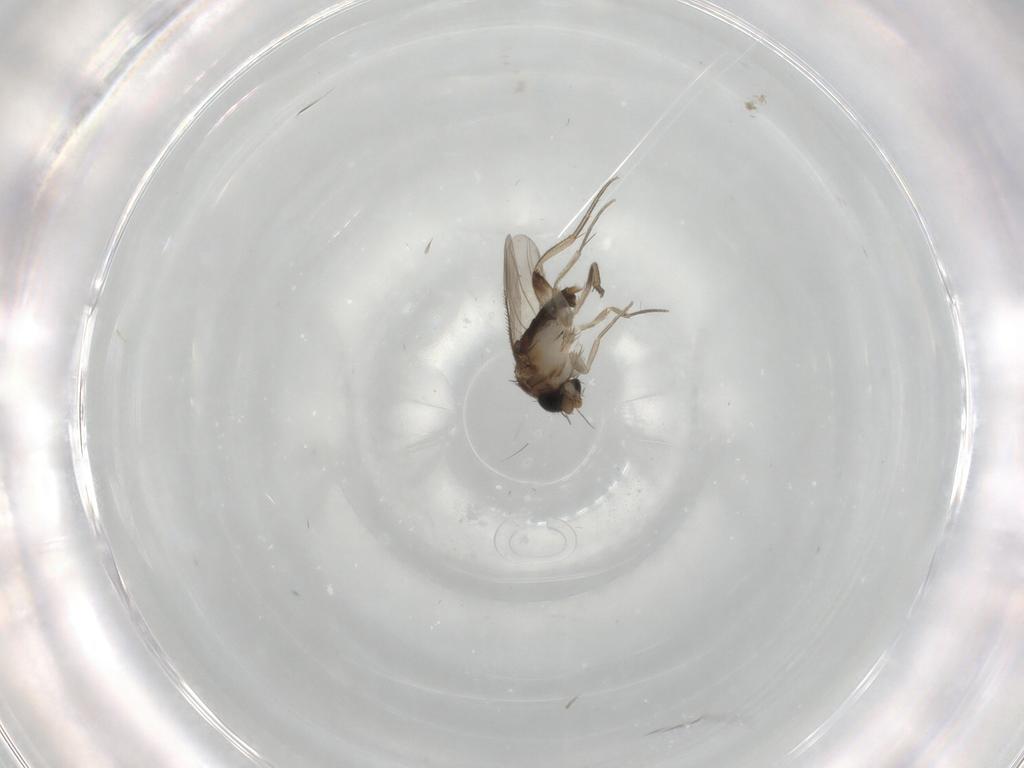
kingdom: Animalia
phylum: Arthropoda
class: Insecta
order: Diptera
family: Phoridae
